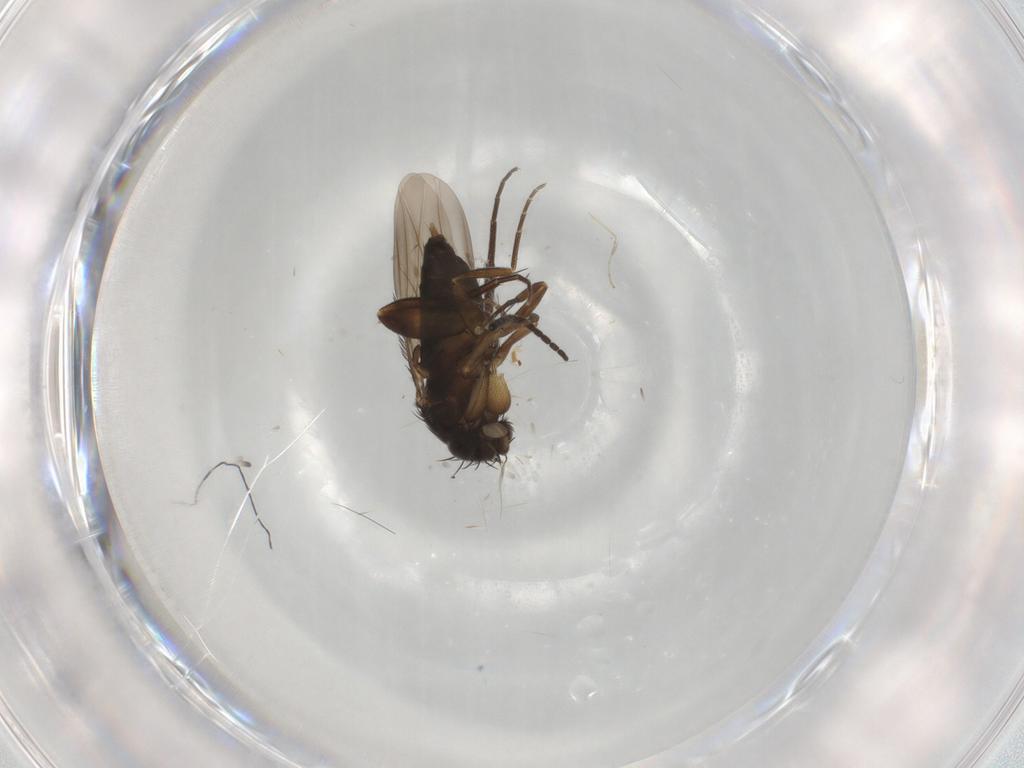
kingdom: Animalia
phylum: Arthropoda
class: Insecta
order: Diptera
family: Phoridae
